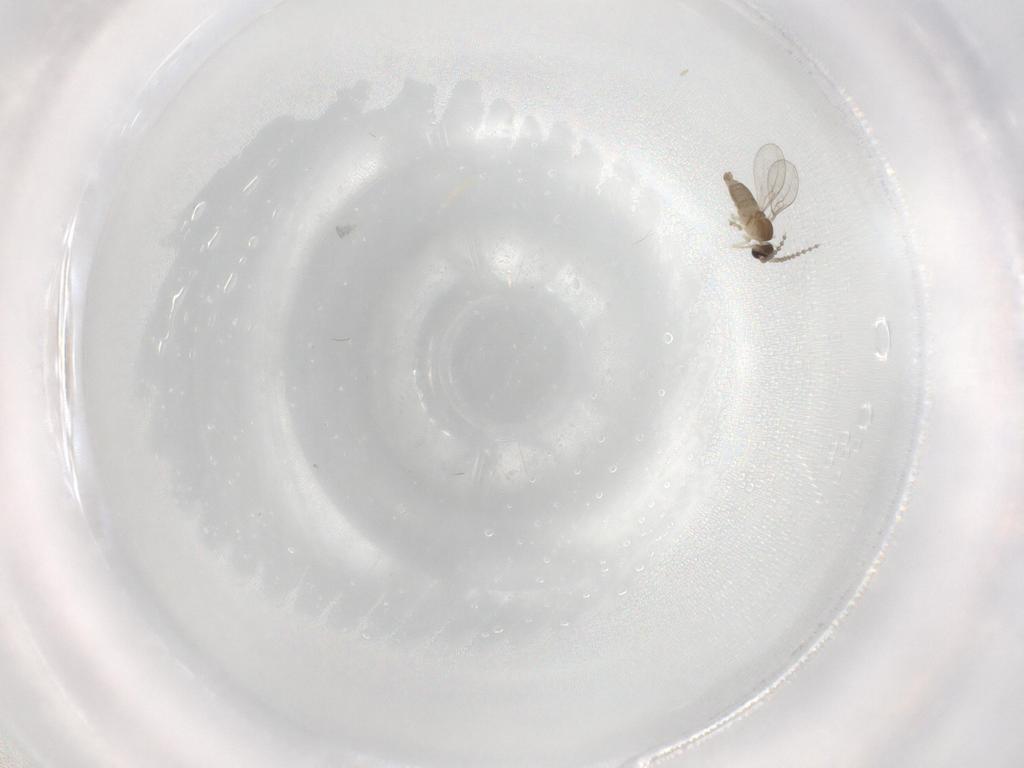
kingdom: Animalia
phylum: Arthropoda
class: Insecta
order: Diptera
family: Cecidomyiidae
